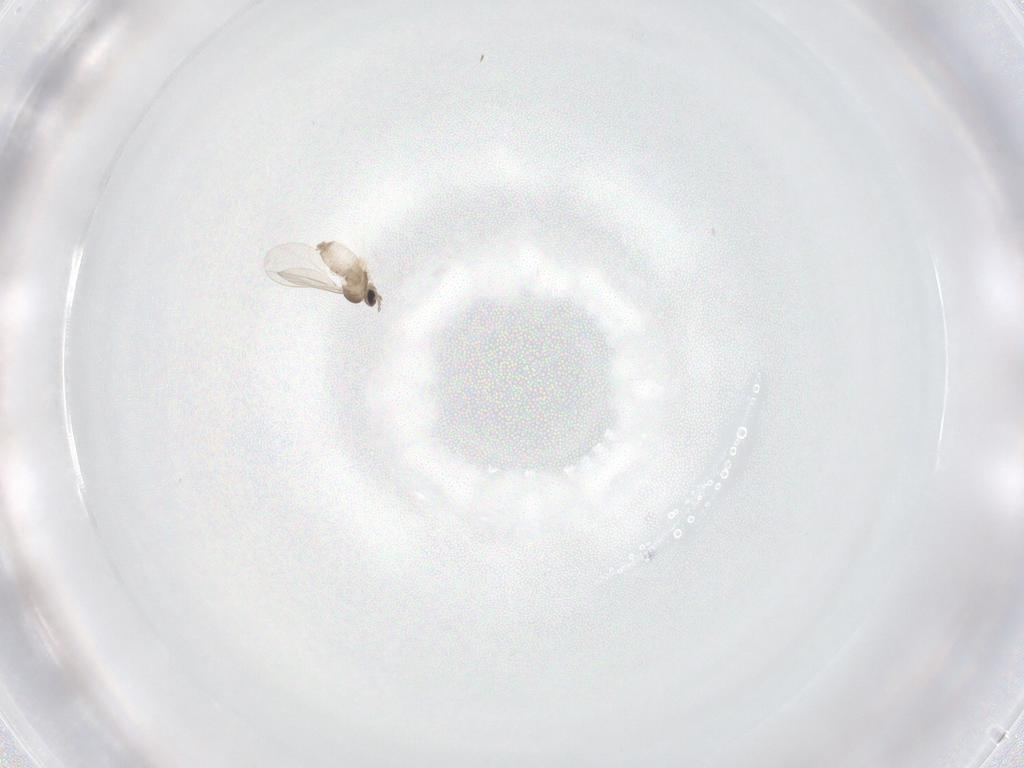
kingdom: Animalia
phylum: Arthropoda
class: Insecta
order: Diptera
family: Cecidomyiidae
